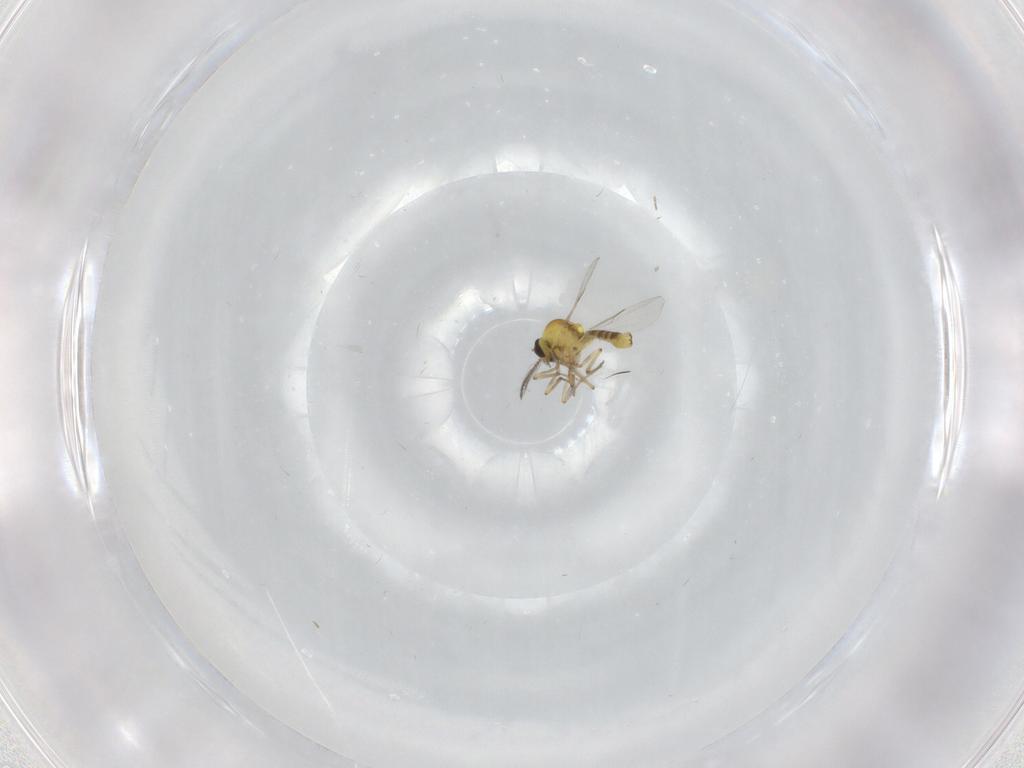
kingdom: Animalia
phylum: Arthropoda
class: Insecta
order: Diptera
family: Ceratopogonidae
